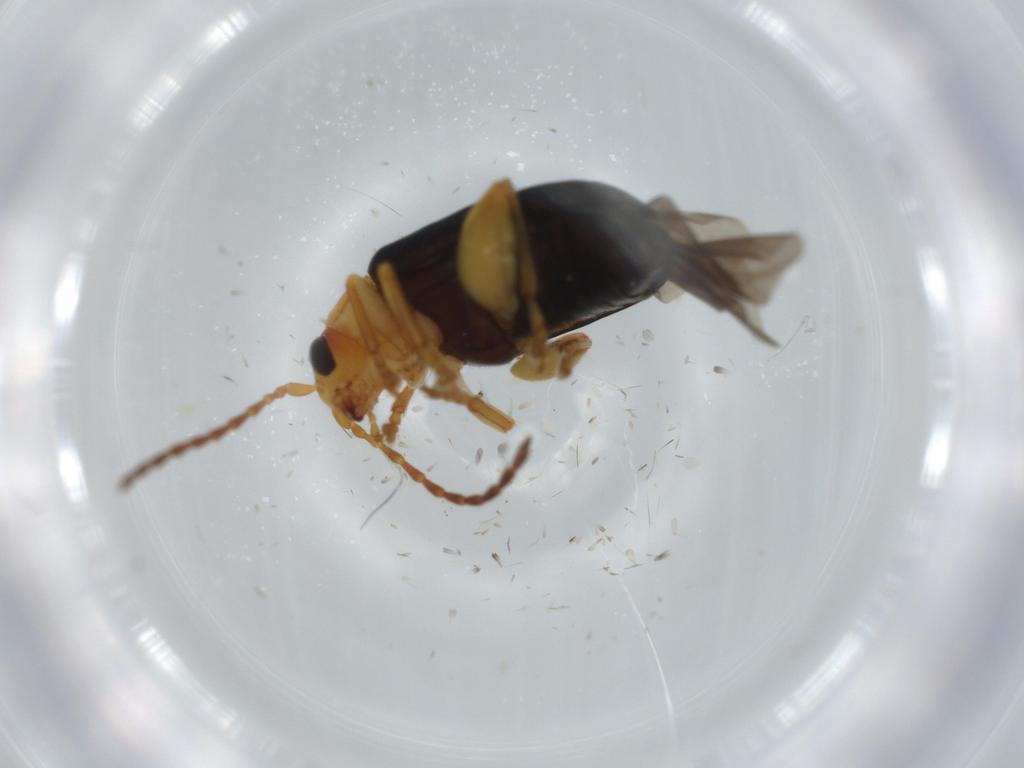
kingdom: Animalia
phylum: Arthropoda
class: Insecta
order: Coleoptera
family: Chrysomelidae
